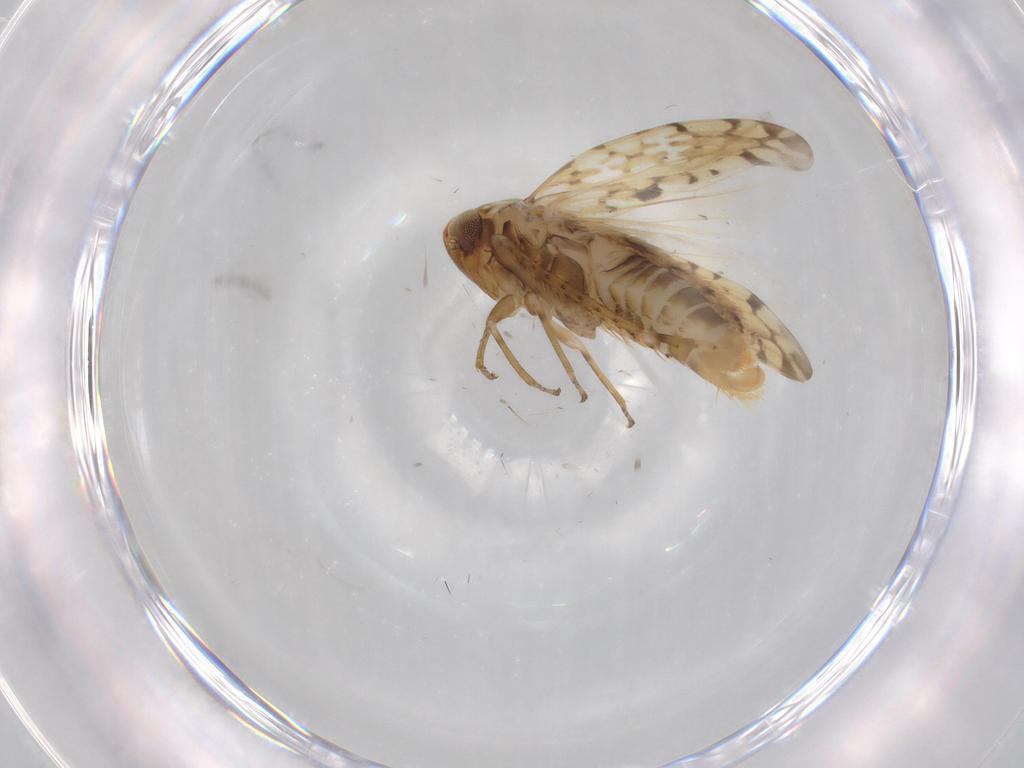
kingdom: Animalia
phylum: Arthropoda
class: Insecta
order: Hemiptera
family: Cicadellidae
